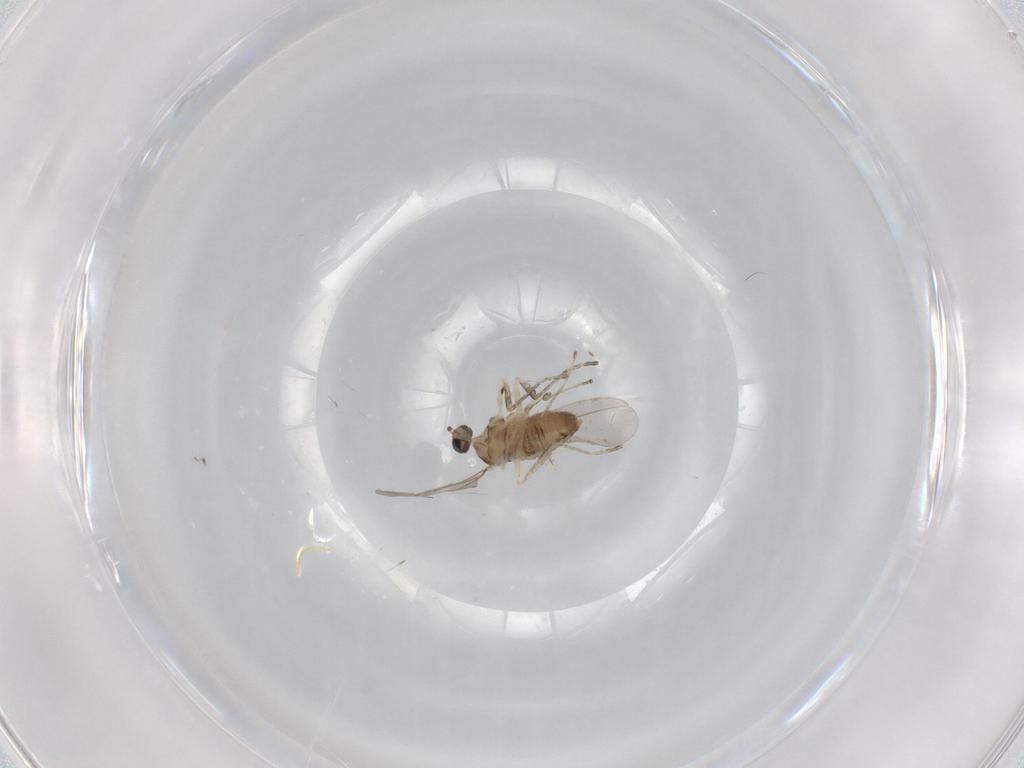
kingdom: Animalia
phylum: Arthropoda
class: Insecta
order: Diptera
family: Cecidomyiidae
